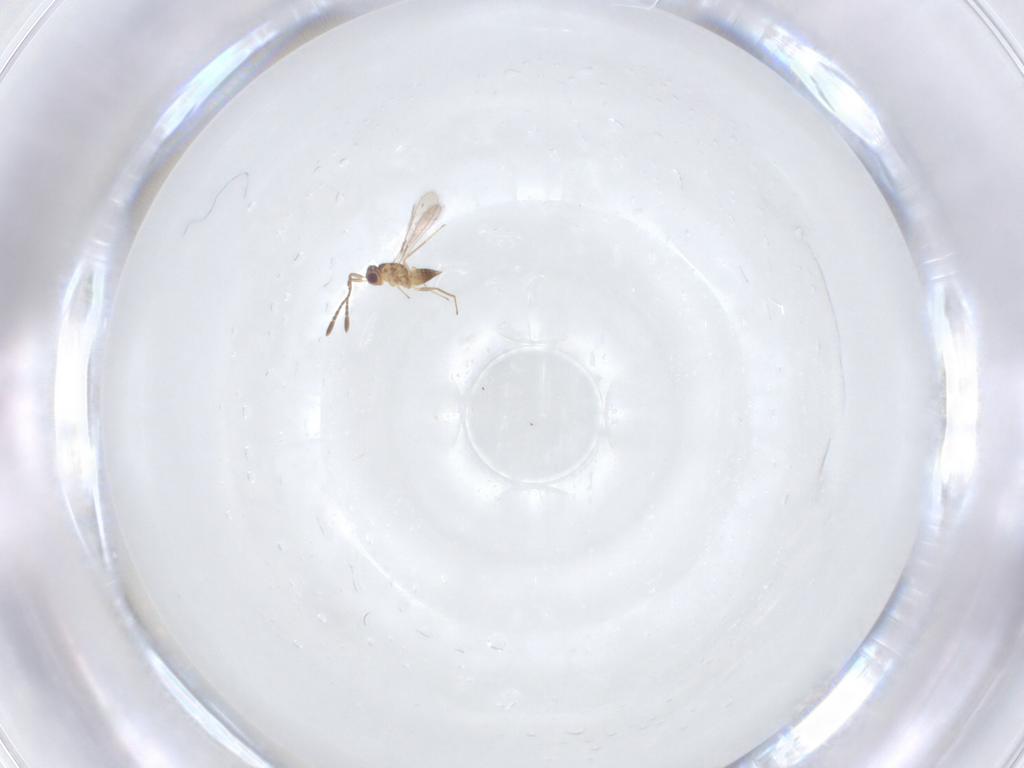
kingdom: Animalia
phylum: Arthropoda
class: Insecta
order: Hymenoptera
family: Mymaridae
